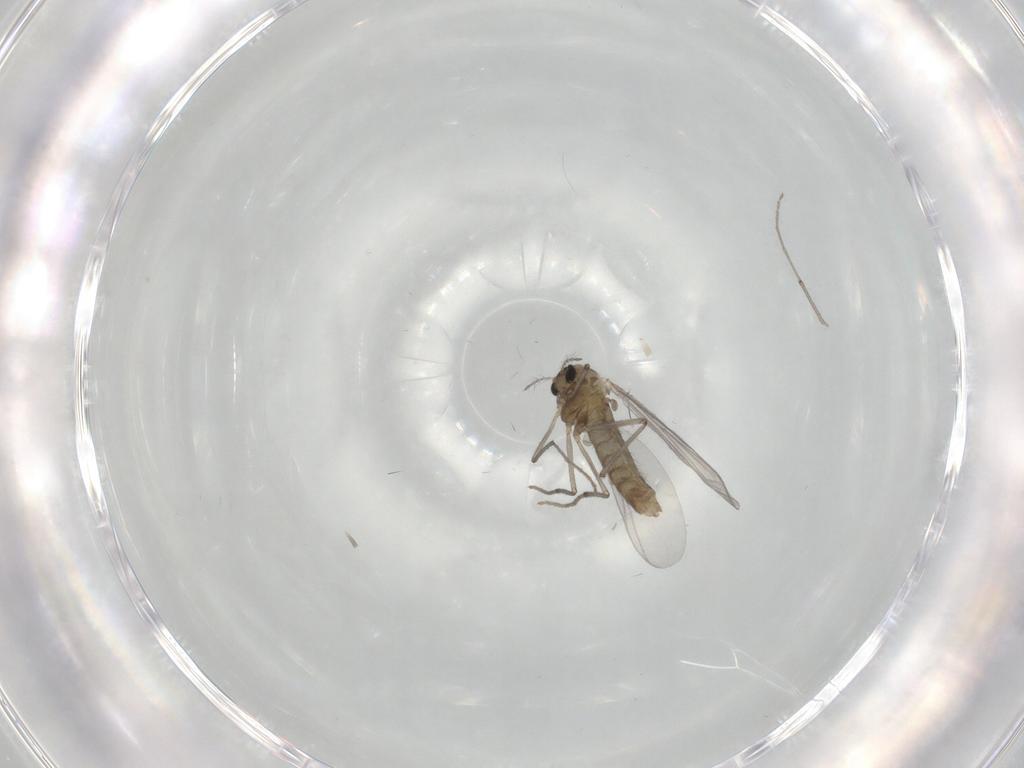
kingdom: Animalia
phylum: Arthropoda
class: Insecta
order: Diptera
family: Chironomidae
